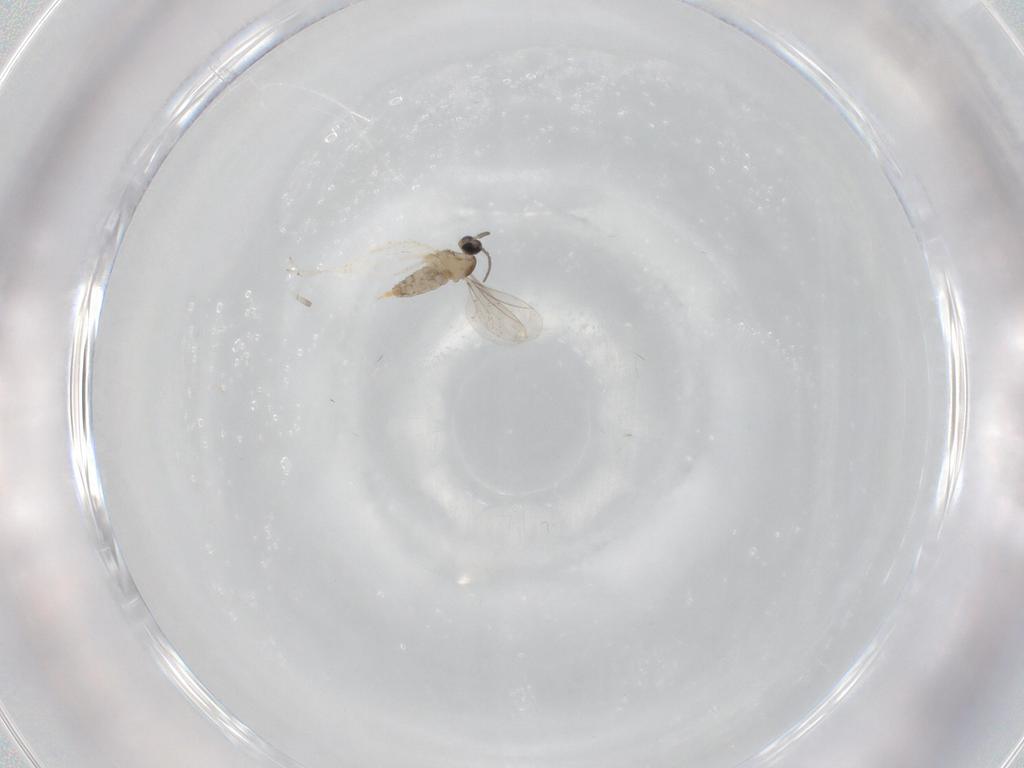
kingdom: Animalia
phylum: Arthropoda
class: Insecta
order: Diptera
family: Cecidomyiidae
